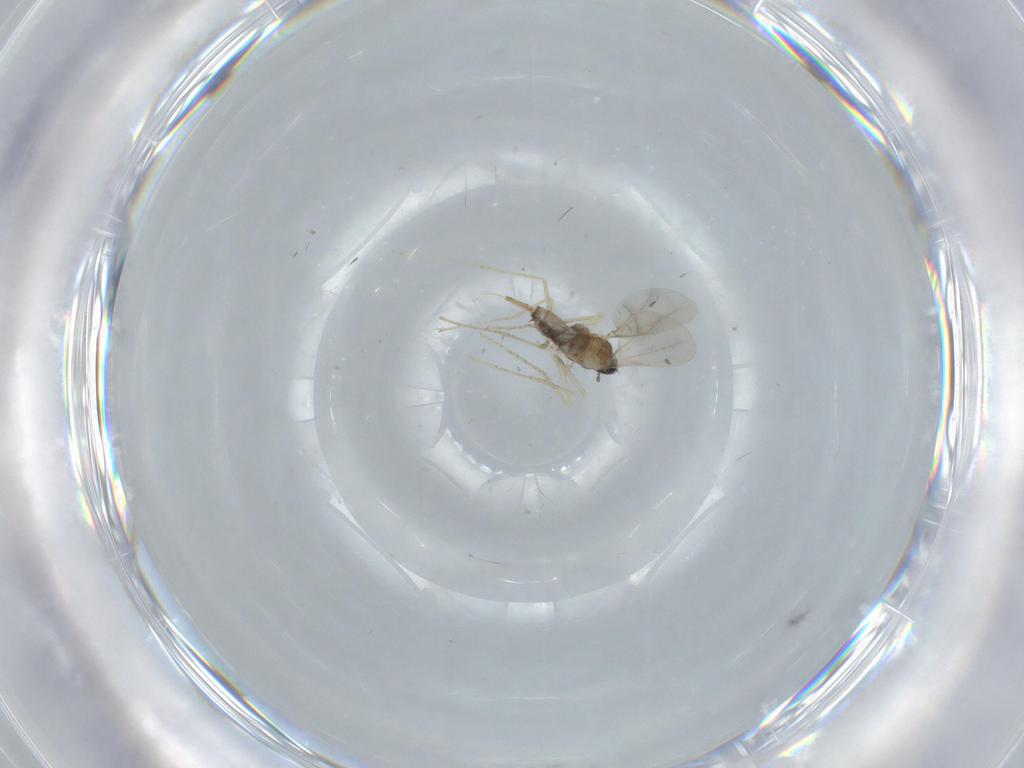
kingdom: Animalia
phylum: Arthropoda
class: Insecta
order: Diptera
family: Cecidomyiidae
